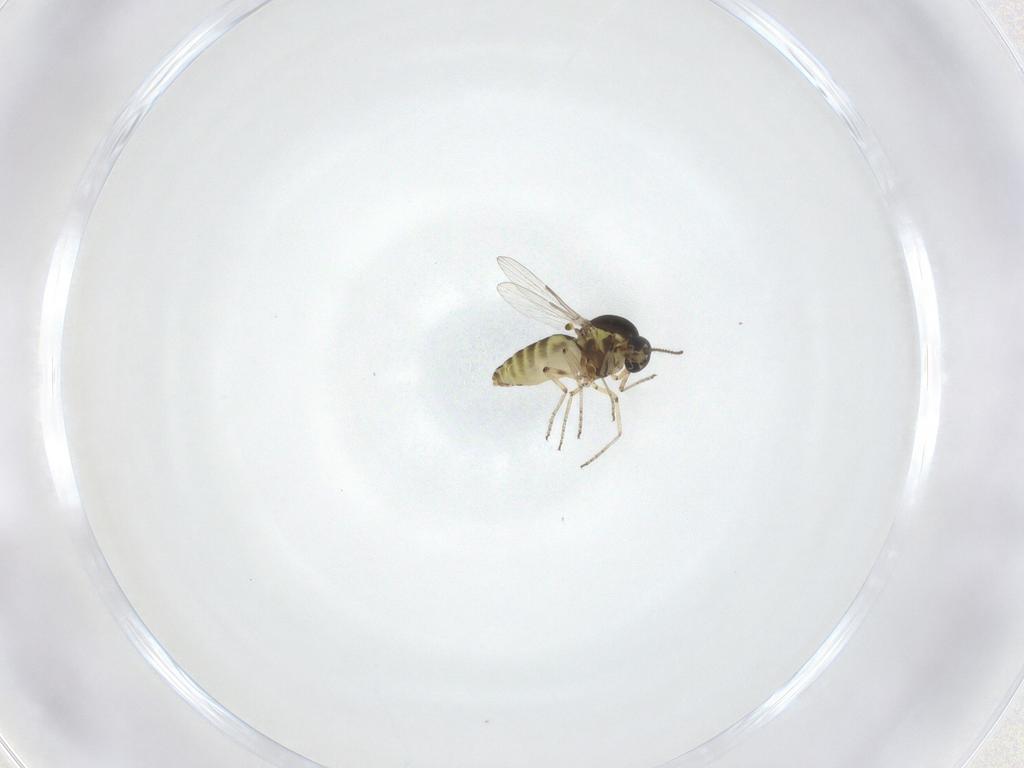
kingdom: Animalia
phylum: Arthropoda
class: Insecta
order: Diptera
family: Ceratopogonidae
